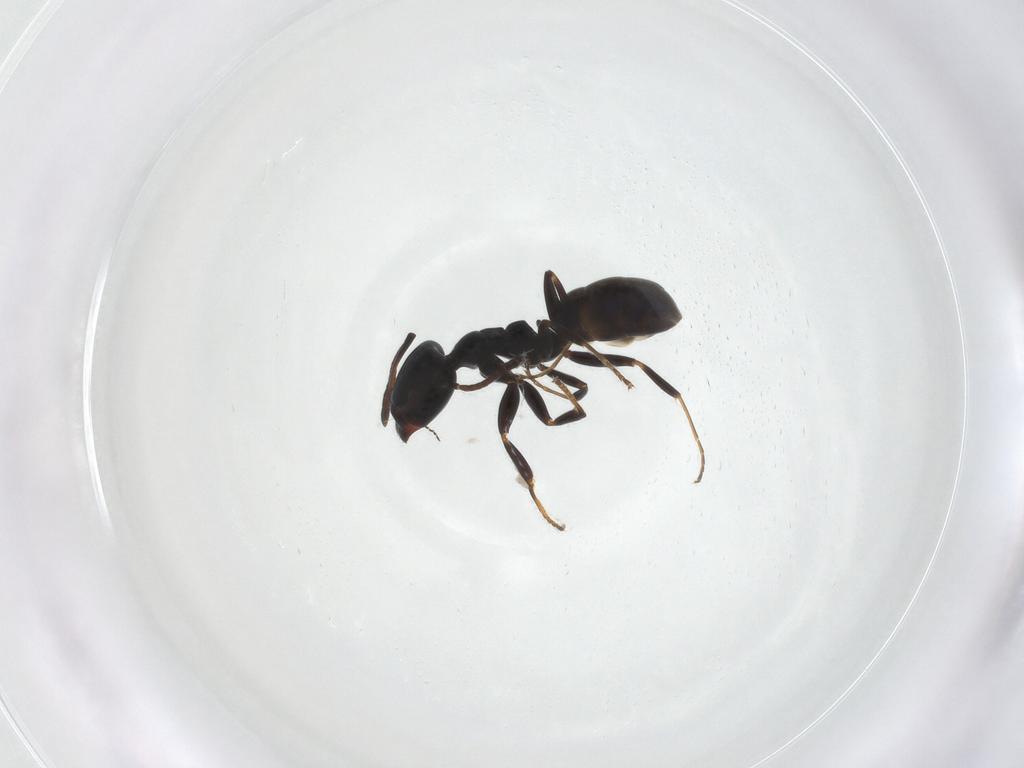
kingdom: Animalia
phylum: Arthropoda
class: Insecta
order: Hymenoptera
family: Formicidae
